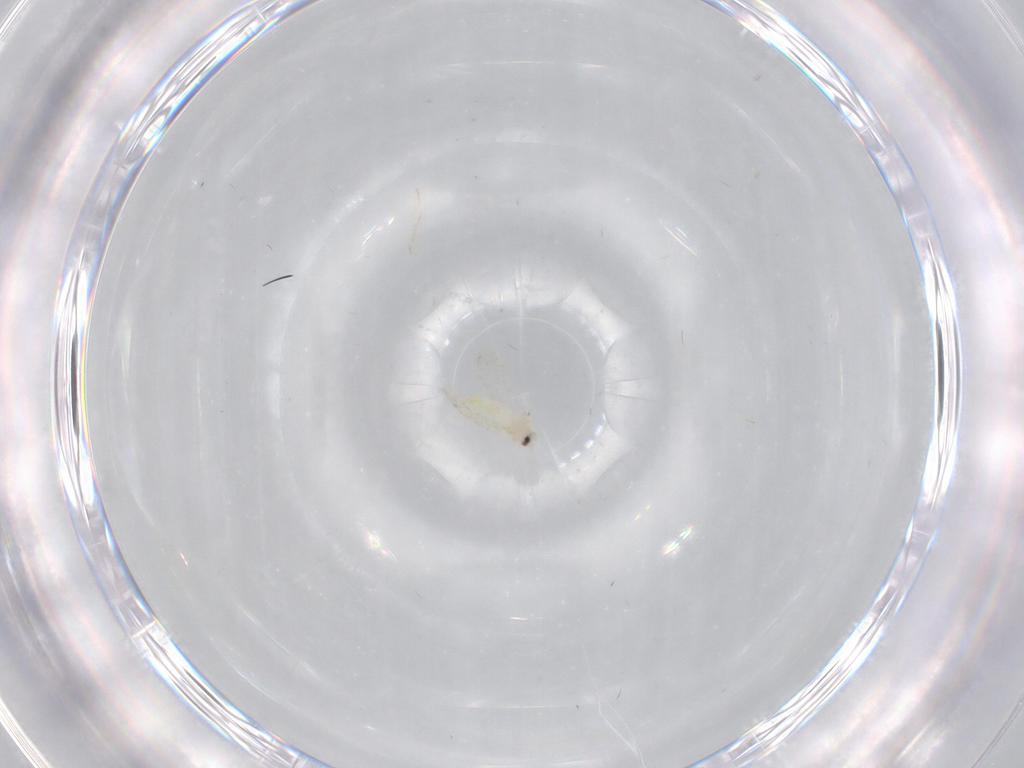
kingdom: Animalia
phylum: Arthropoda
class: Insecta
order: Hemiptera
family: Aleyrodidae
